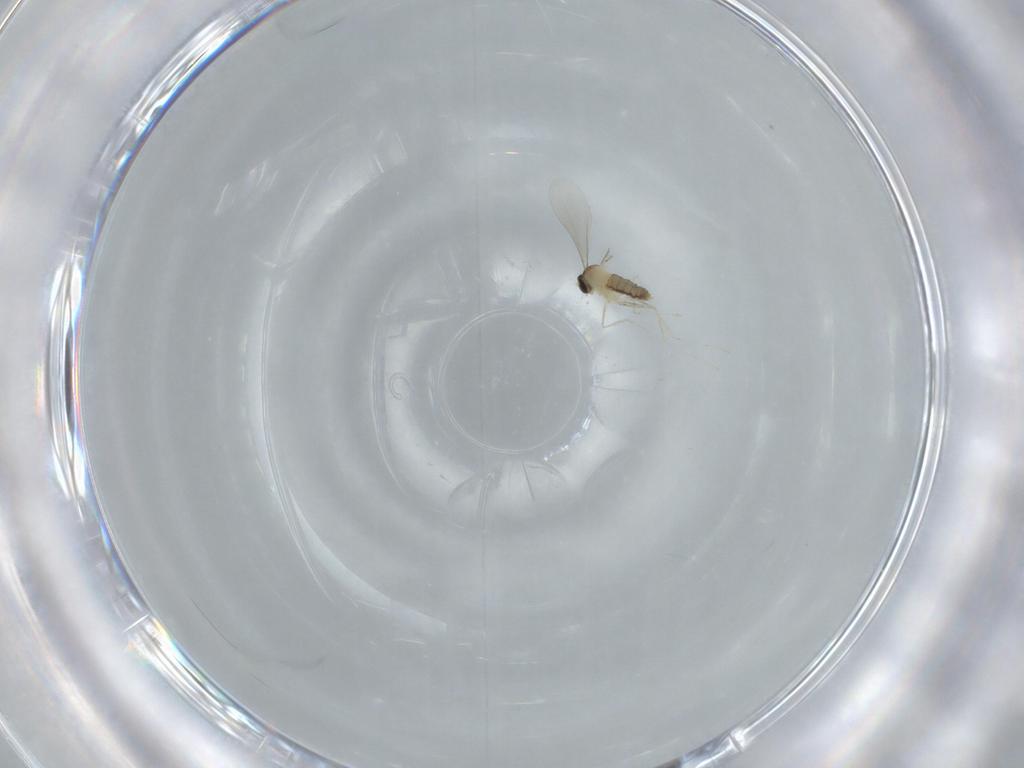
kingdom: Animalia
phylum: Arthropoda
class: Insecta
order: Diptera
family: Cecidomyiidae
